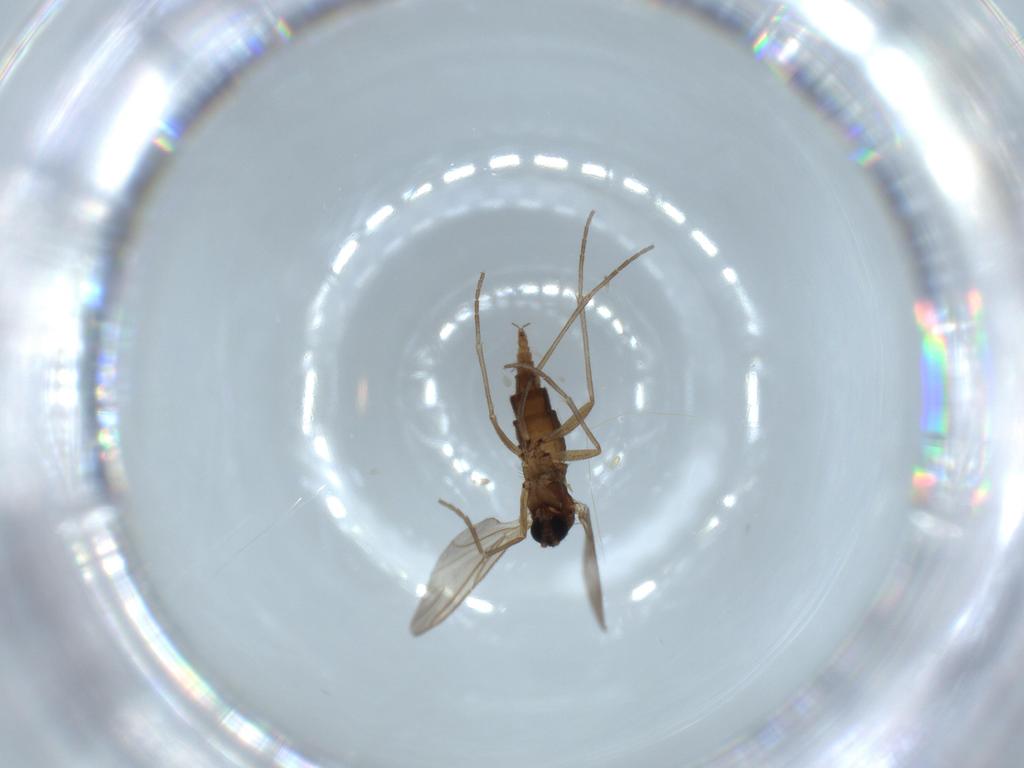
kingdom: Animalia
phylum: Arthropoda
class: Insecta
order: Diptera
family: Sciaridae
